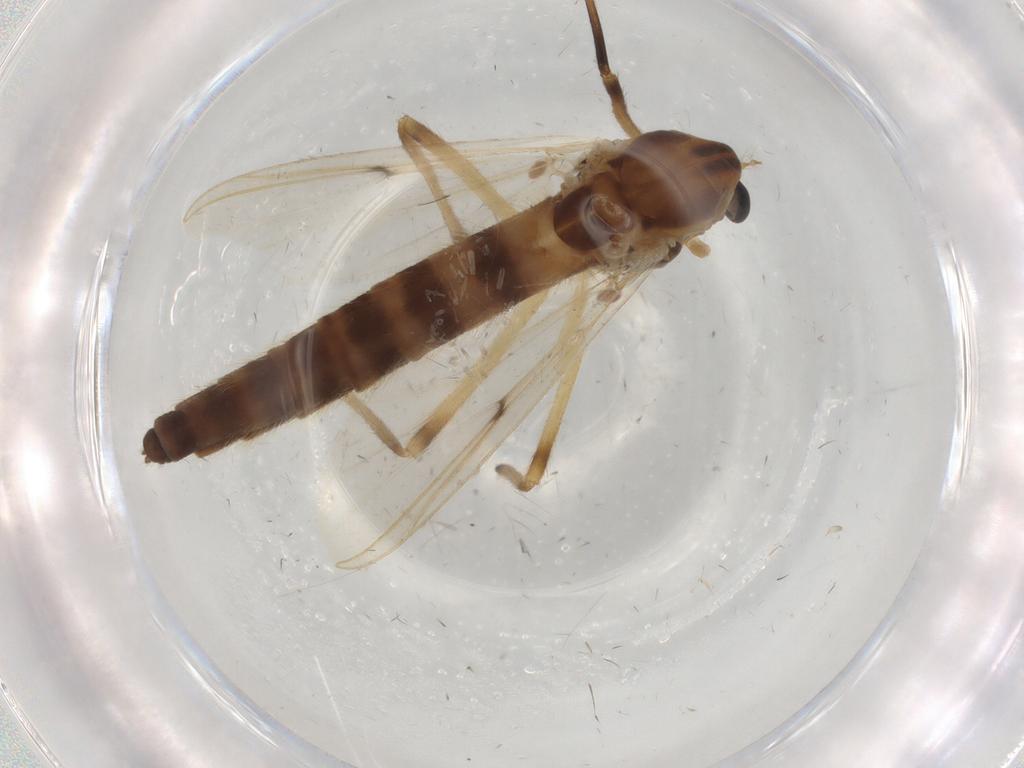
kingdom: Animalia
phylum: Arthropoda
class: Insecta
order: Diptera
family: Chironomidae
